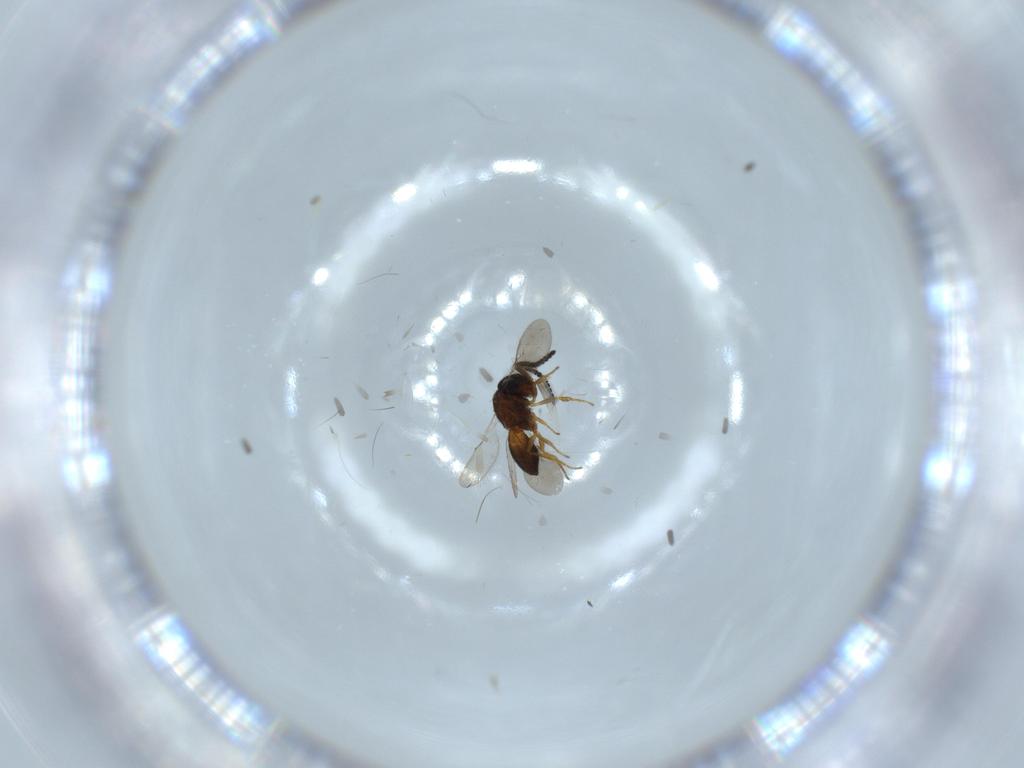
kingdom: Animalia
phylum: Arthropoda
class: Insecta
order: Hymenoptera
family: Scelionidae
